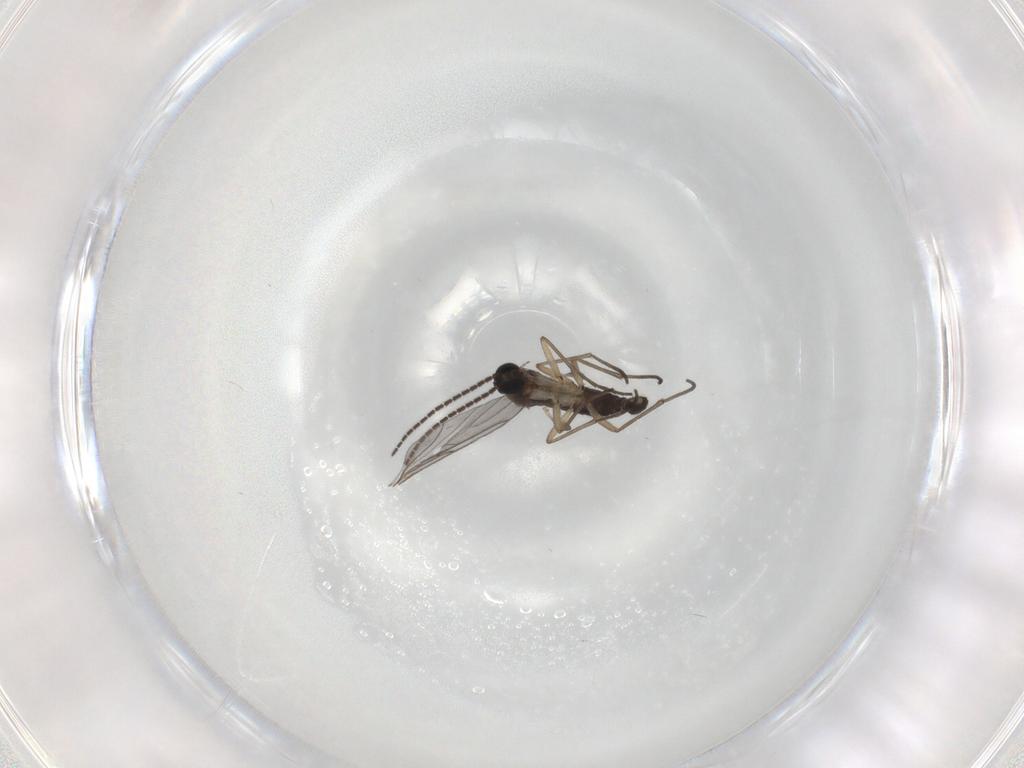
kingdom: Animalia
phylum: Arthropoda
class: Insecta
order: Diptera
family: Sciaridae
